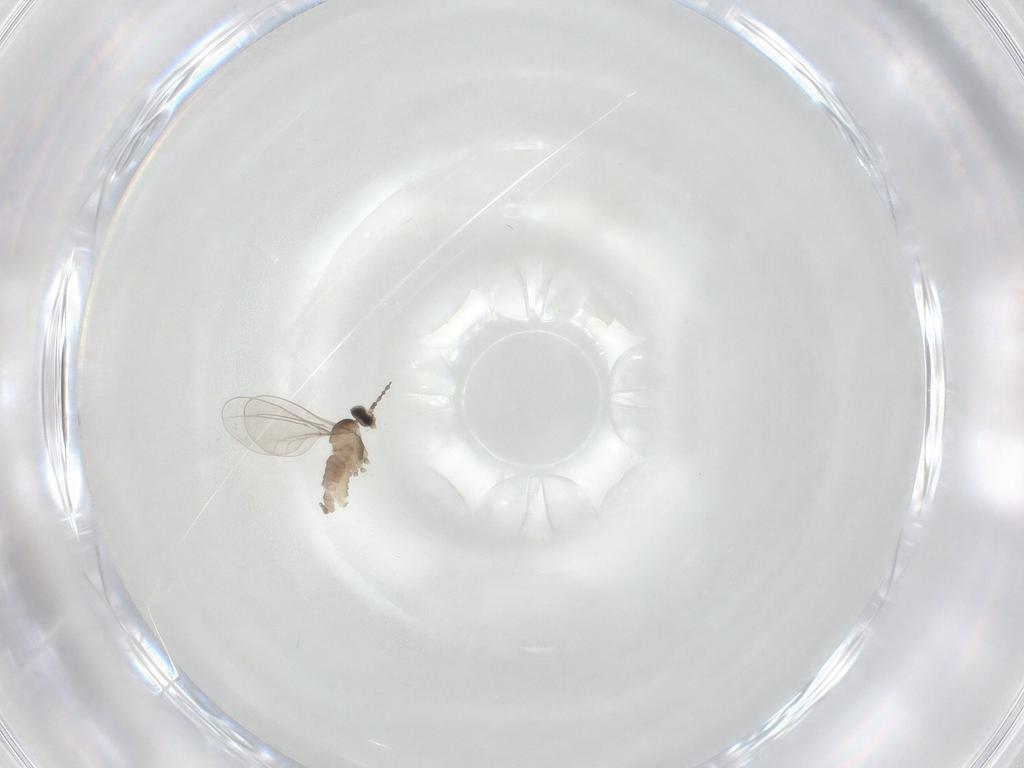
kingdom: Animalia
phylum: Arthropoda
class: Insecta
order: Diptera
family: Cecidomyiidae
